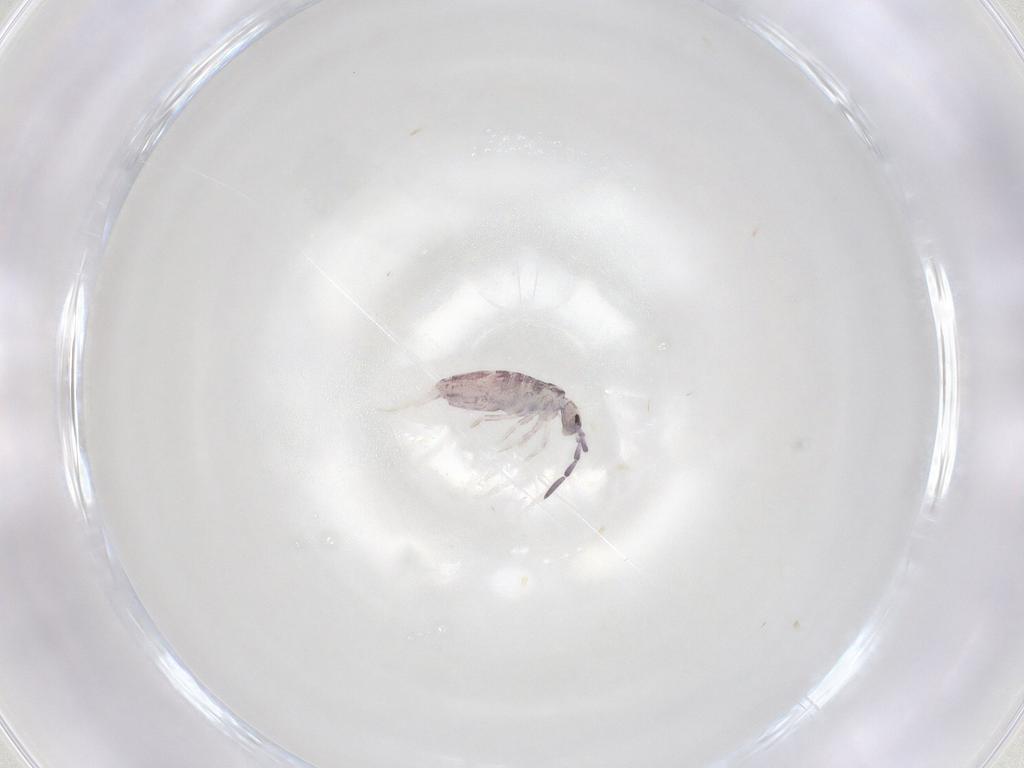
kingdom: Animalia
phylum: Arthropoda
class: Collembola
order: Poduromorpha
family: Hypogastruridae
